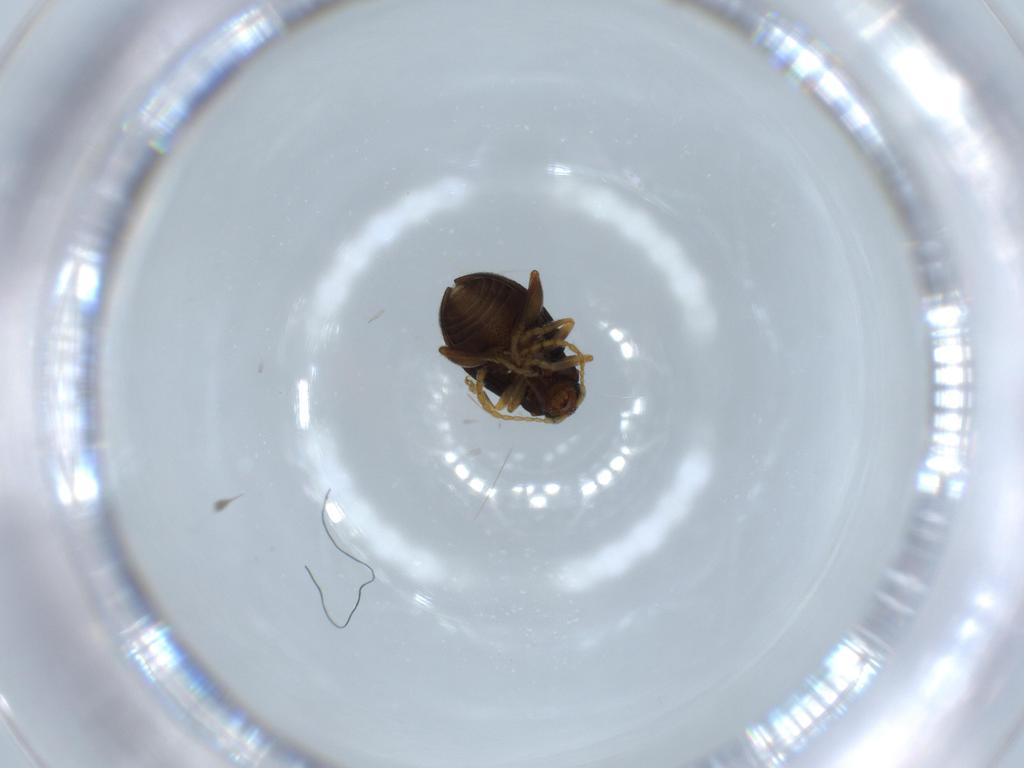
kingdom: Animalia
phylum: Arthropoda
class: Insecta
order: Coleoptera
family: Chrysomelidae
